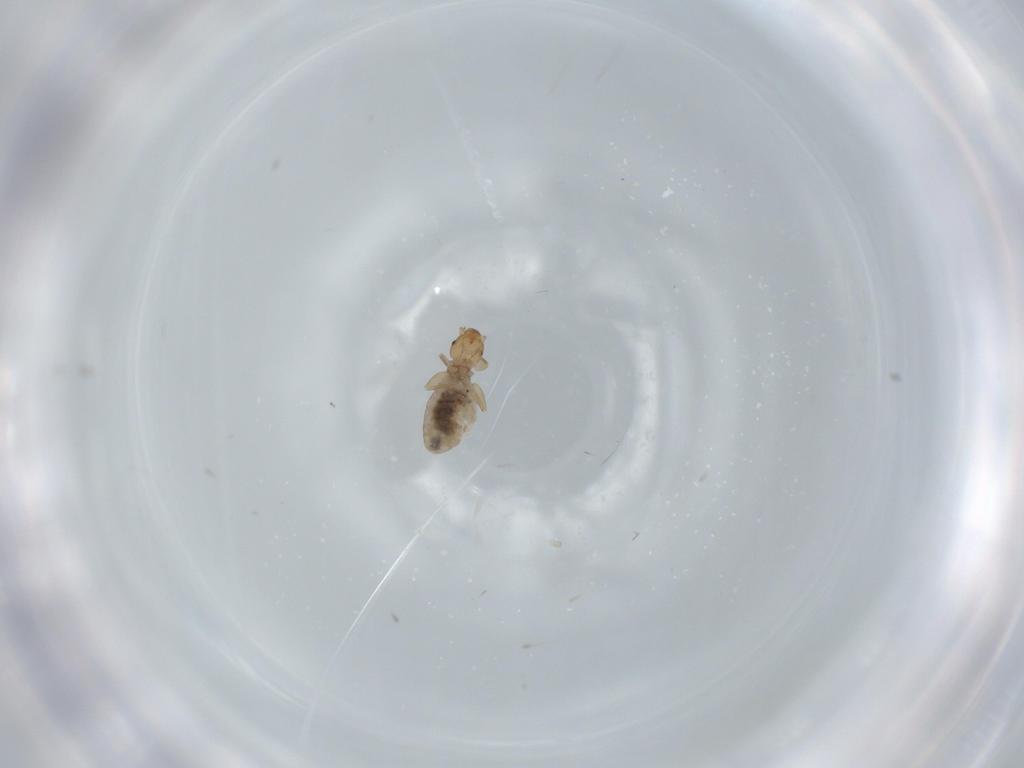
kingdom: Animalia
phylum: Arthropoda
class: Insecta
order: Psocodea
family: Liposcelididae
